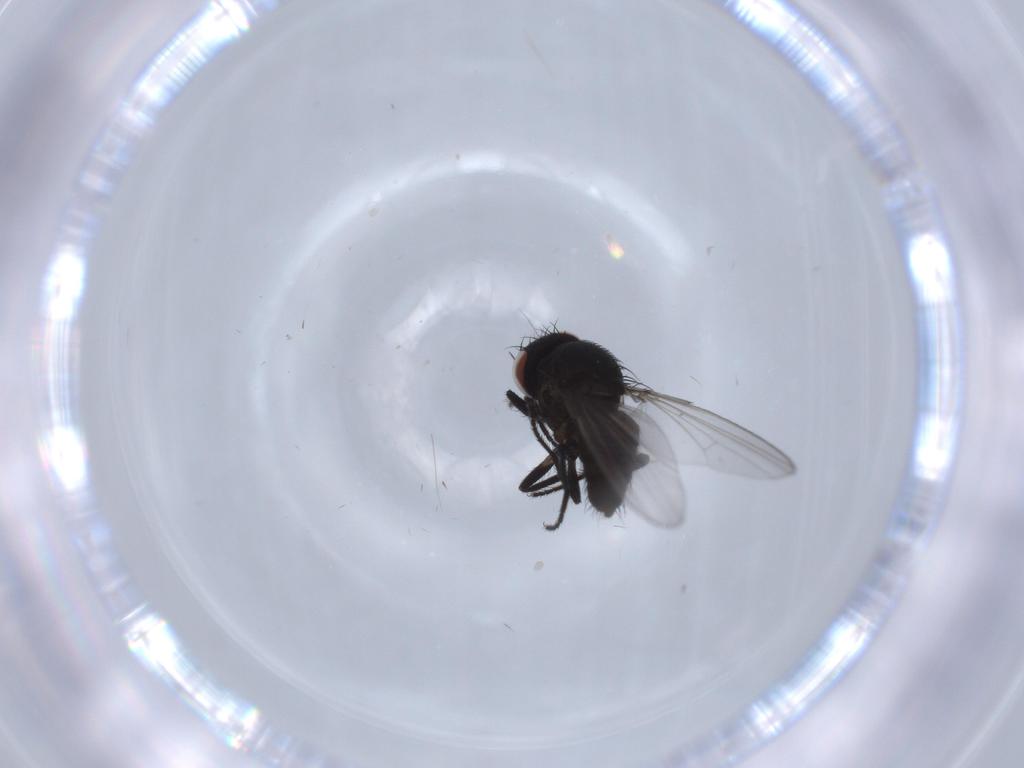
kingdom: Animalia
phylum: Arthropoda
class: Insecta
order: Diptera
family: Milichiidae
